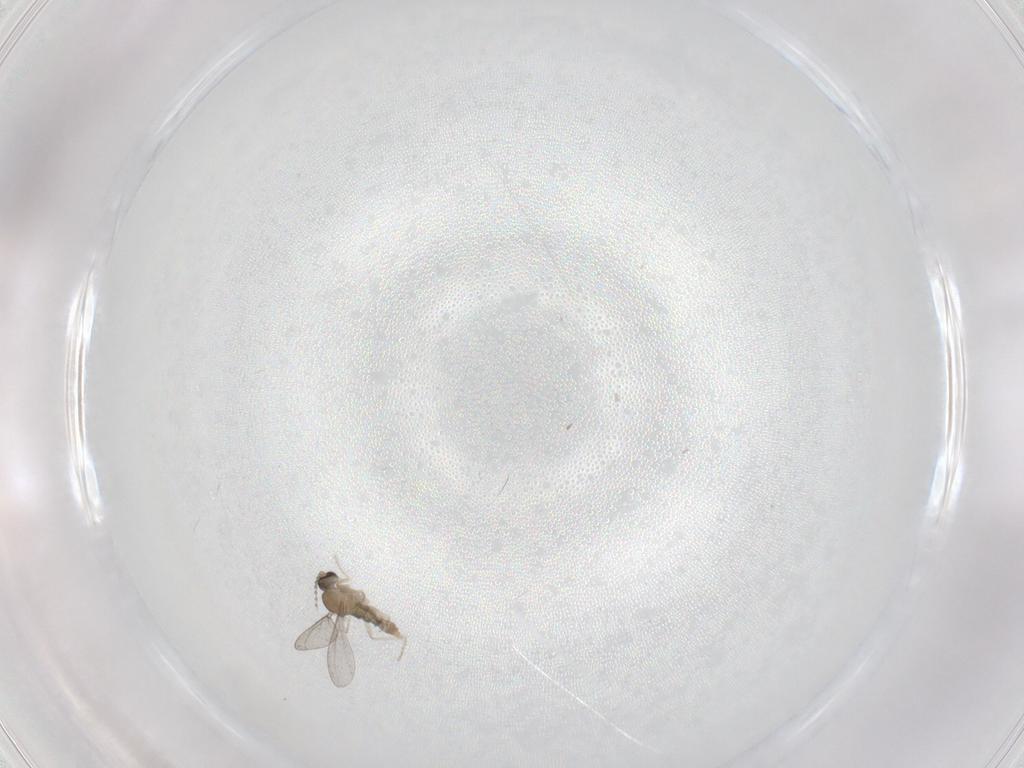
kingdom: Animalia
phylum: Arthropoda
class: Insecta
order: Diptera
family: Cecidomyiidae
